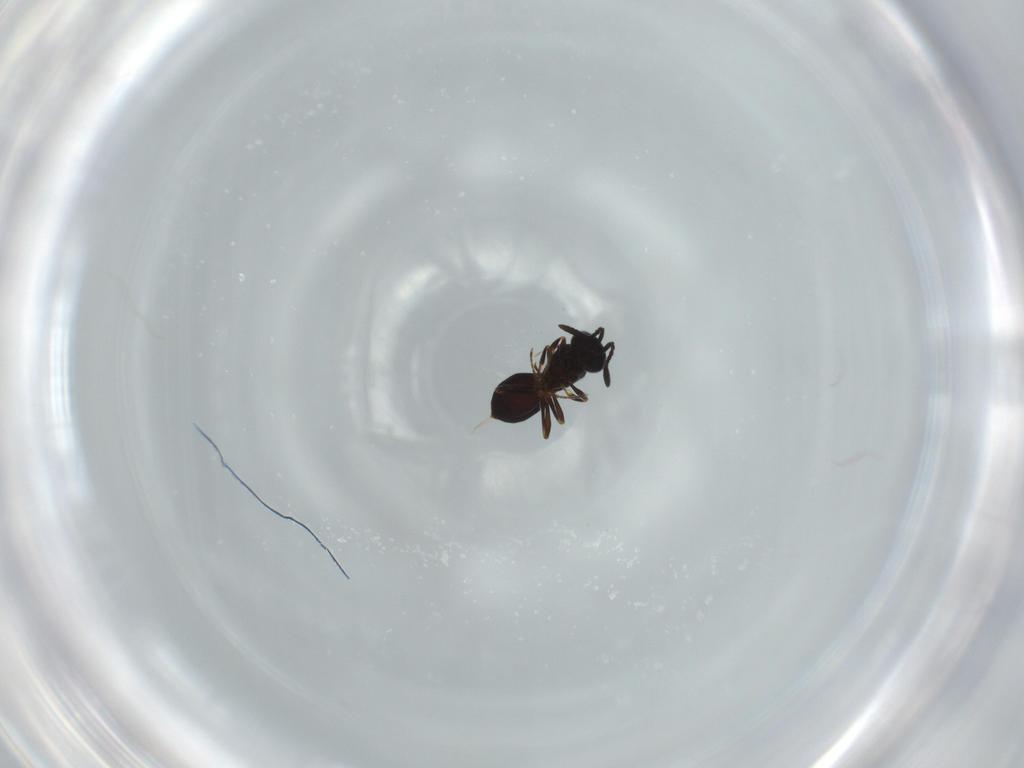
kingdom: Animalia
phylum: Arthropoda
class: Insecta
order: Hymenoptera
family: Scelionidae
